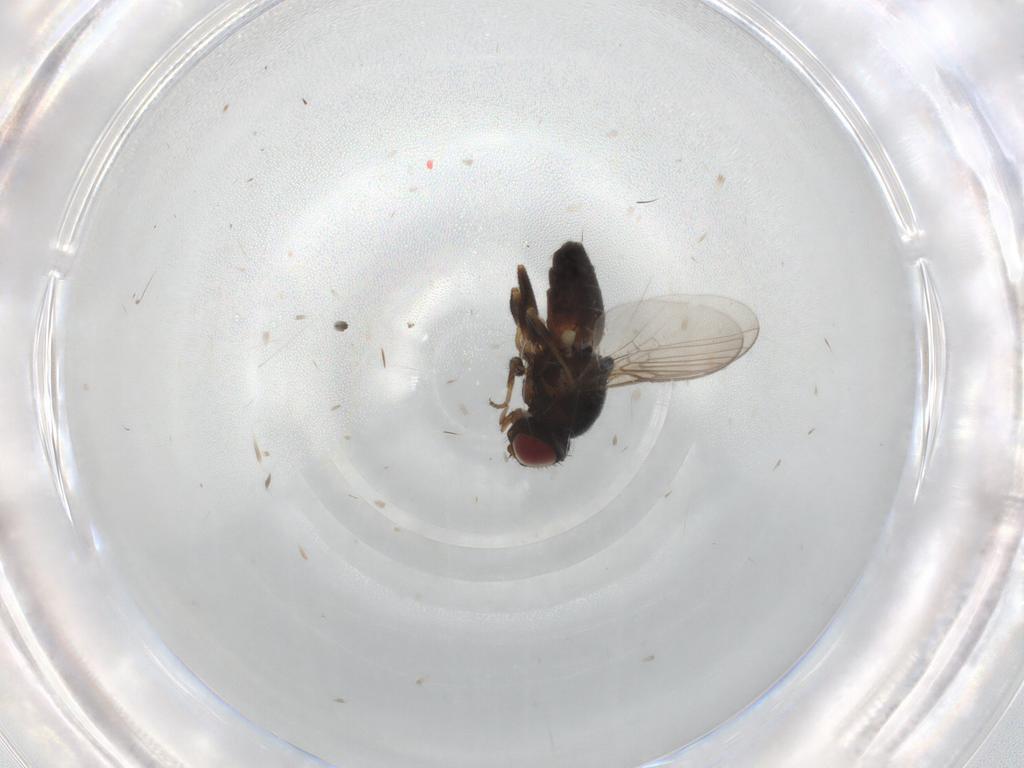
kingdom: Animalia
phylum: Arthropoda
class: Insecta
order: Diptera
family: Chloropidae
